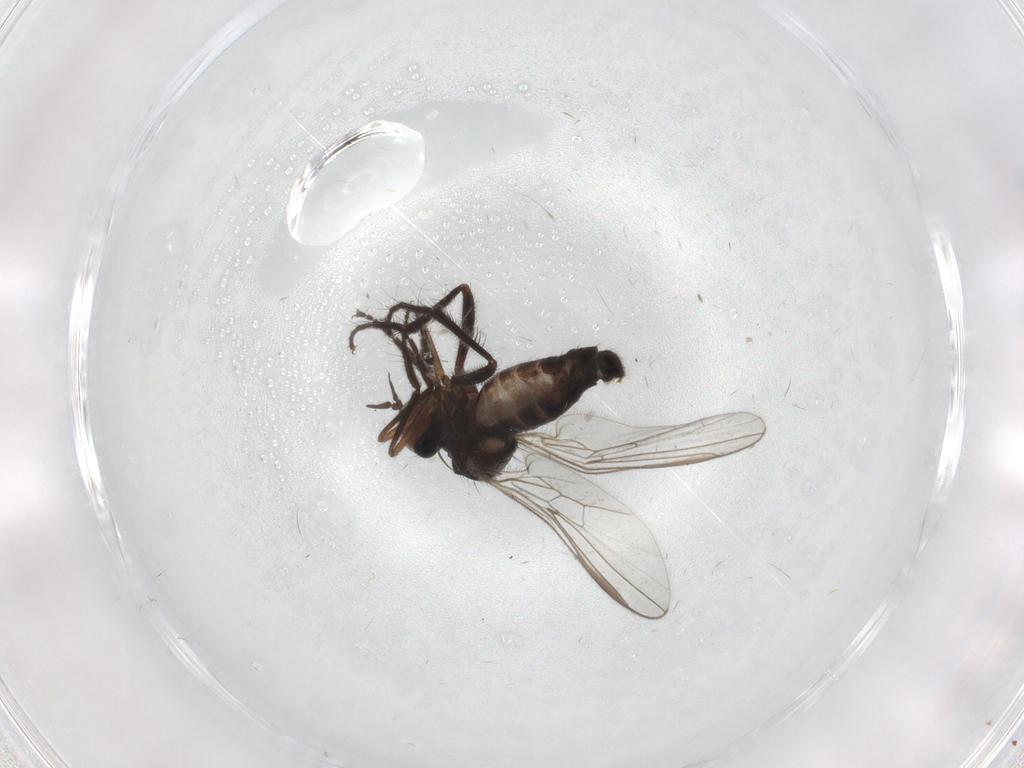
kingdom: Animalia
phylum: Arthropoda
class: Insecta
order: Diptera
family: Empididae
